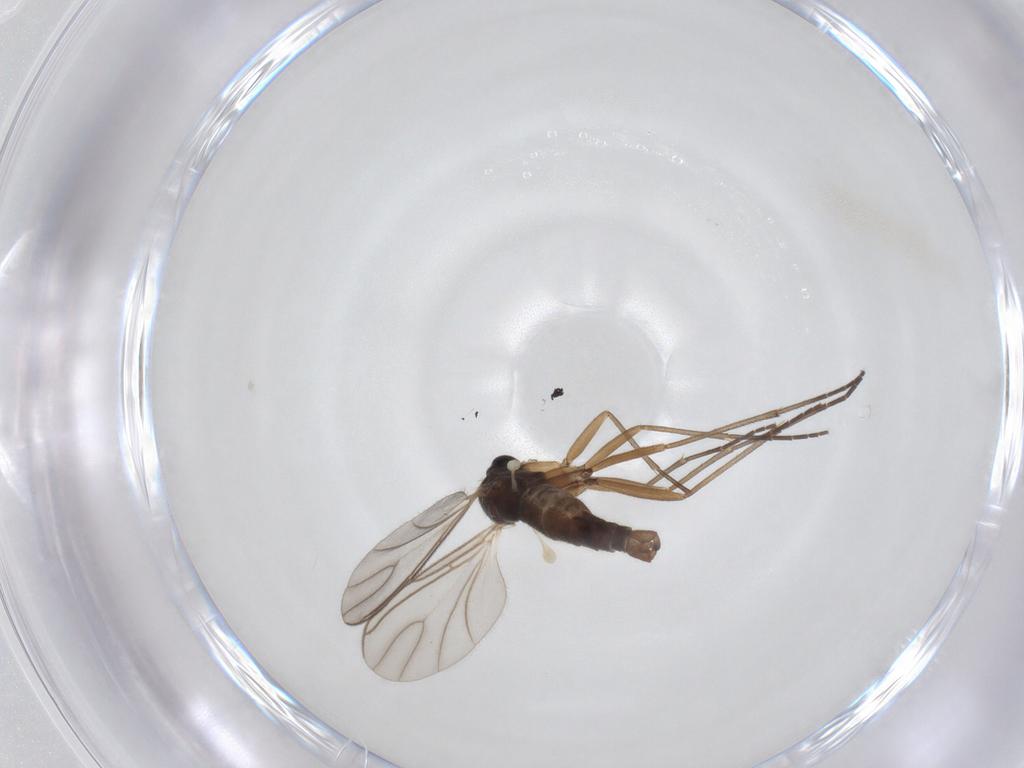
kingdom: Animalia
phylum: Arthropoda
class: Insecta
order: Diptera
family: Sciaridae
